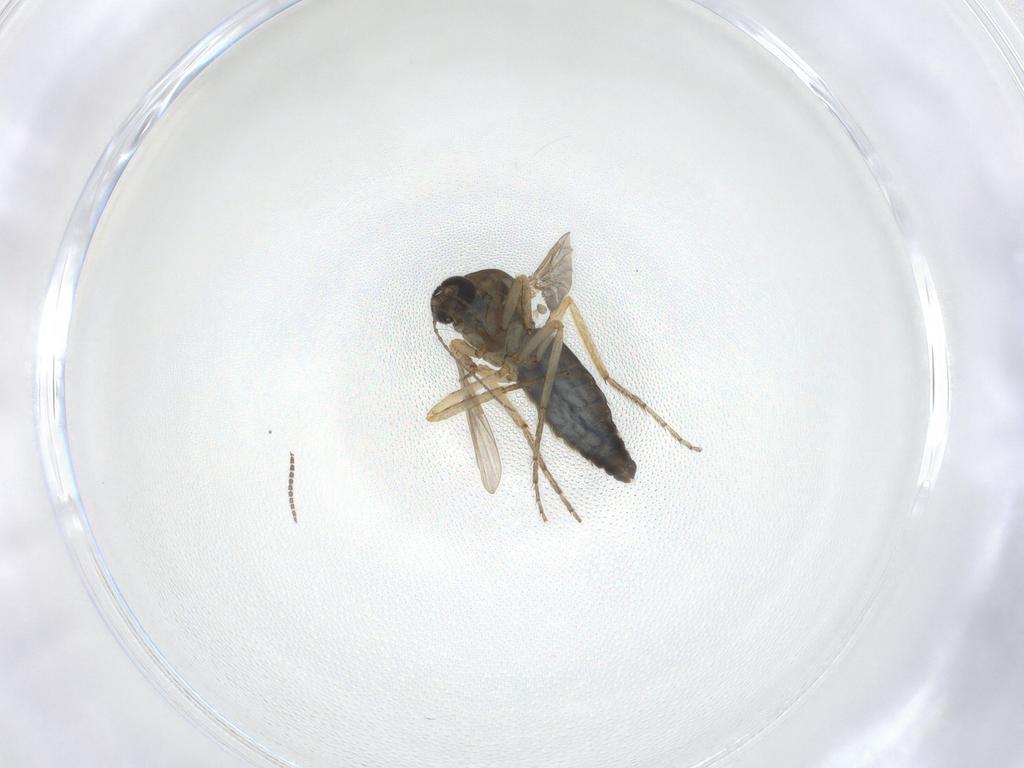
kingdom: Animalia
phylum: Arthropoda
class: Insecta
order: Diptera
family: Ceratopogonidae
